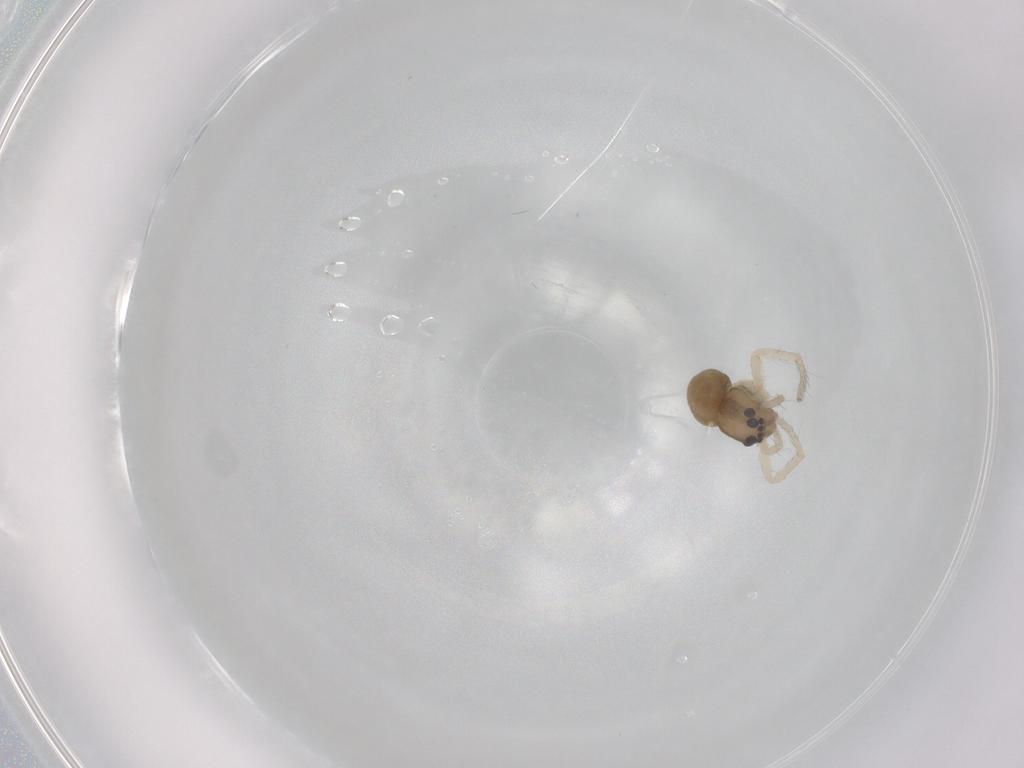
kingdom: Animalia
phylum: Arthropoda
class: Arachnida
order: Araneae
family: Ctenidae
